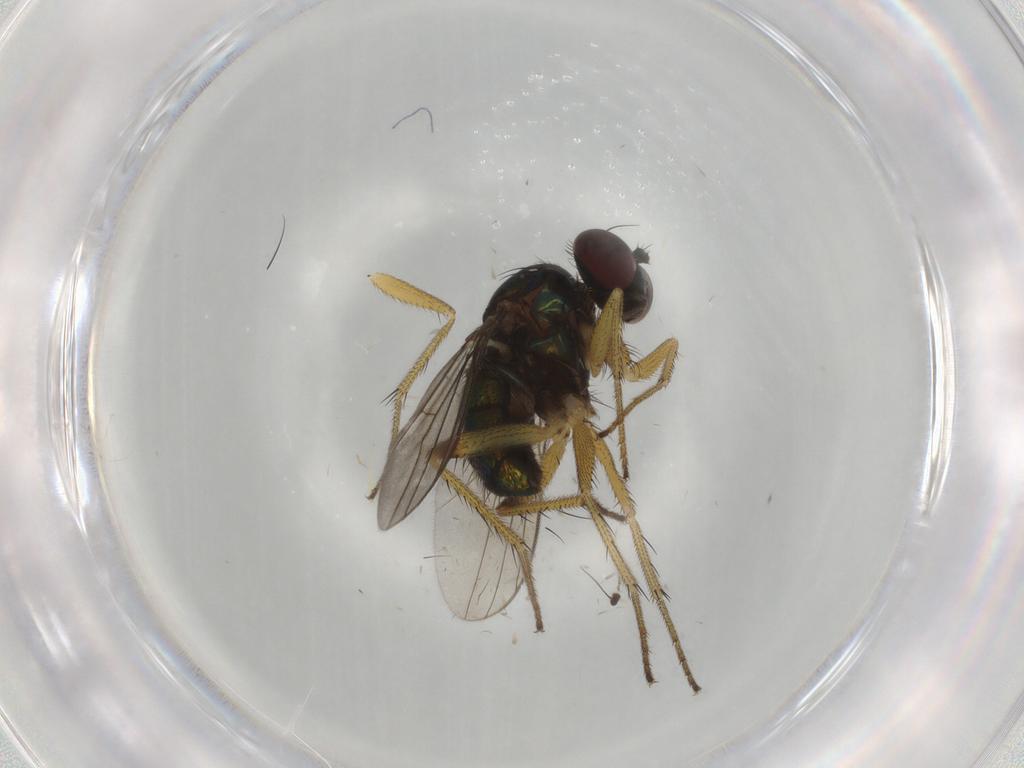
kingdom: Animalia
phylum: Arthropoda
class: Insecta
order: Diptera
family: Dolichopodidae
